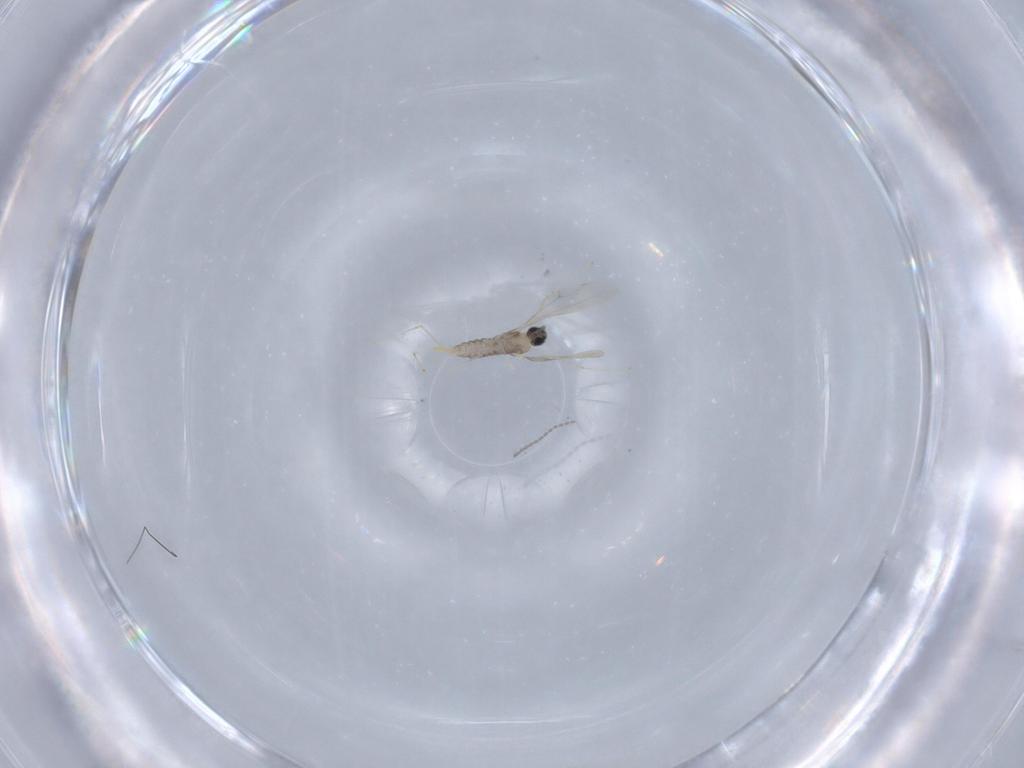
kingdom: Animalia
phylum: Arthropoda
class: Insecta
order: Diptera
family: Cecidomyiidae
